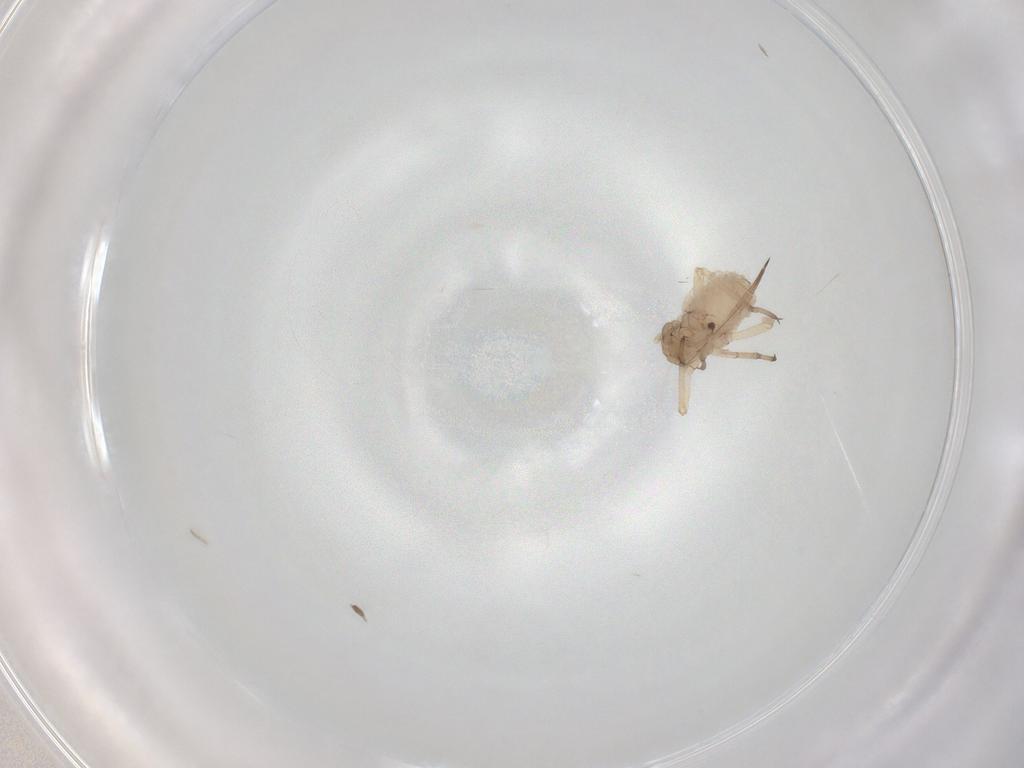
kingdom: Animalia
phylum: Arthropoda
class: Insecta
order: Hemiptera
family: Aphididae
